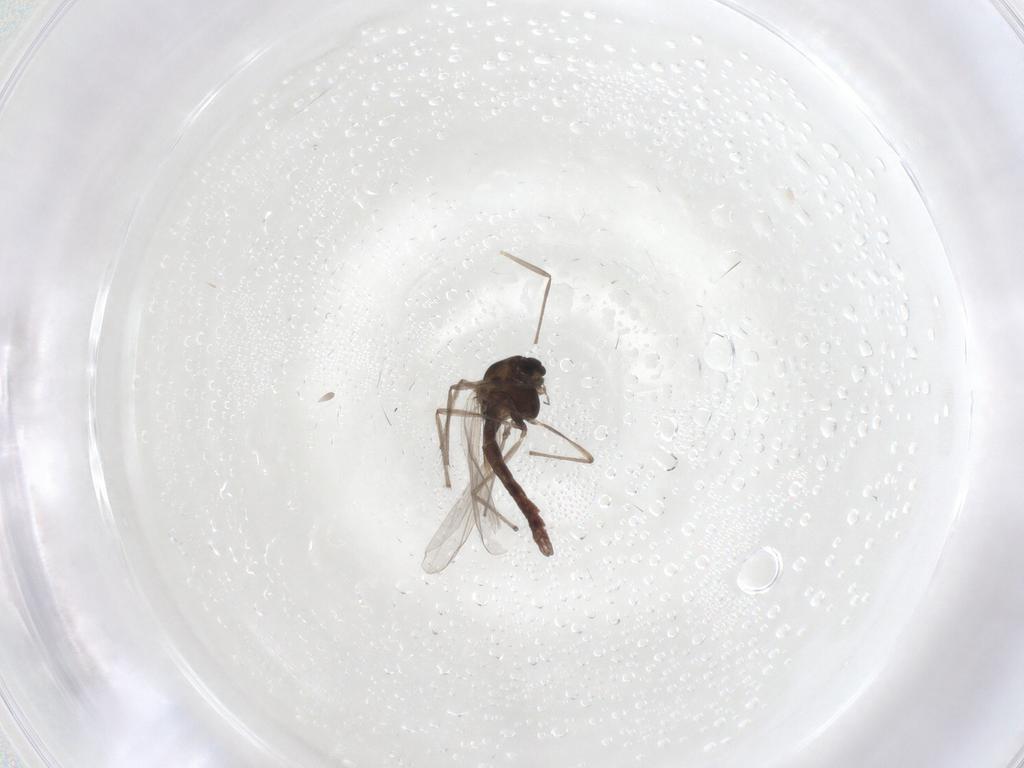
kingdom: Animalia
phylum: Arthropoda
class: Insecta
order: Diptera
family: Chironomidae
